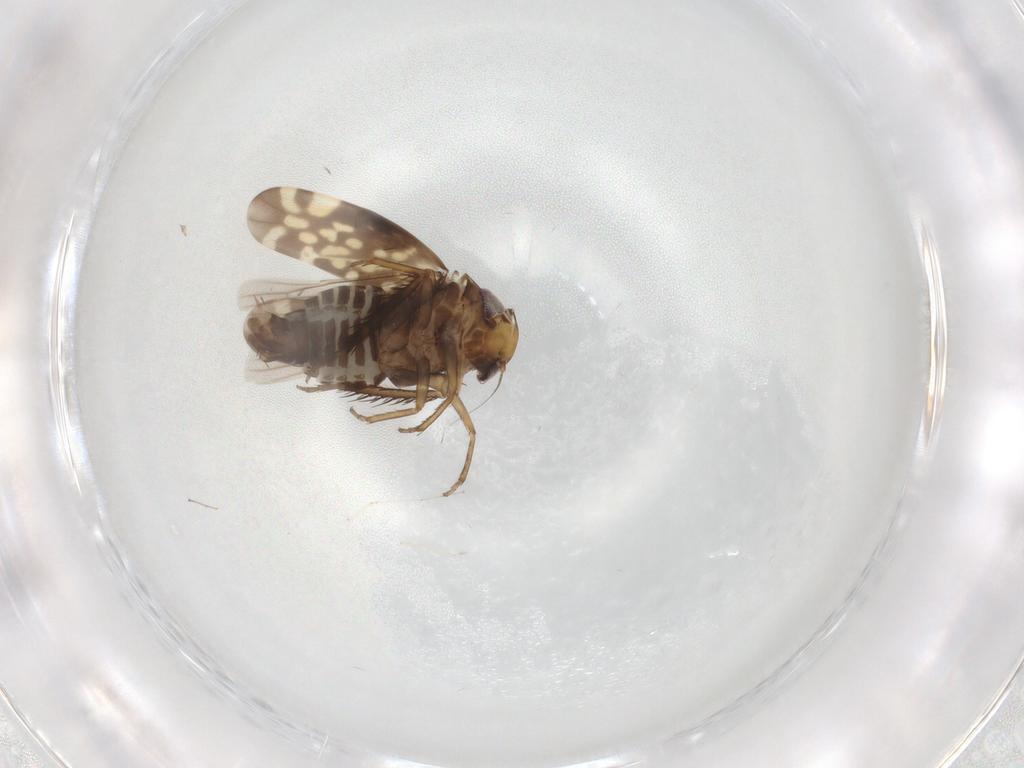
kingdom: Animalia
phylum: Arthropoda
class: Insecta
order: Hemiptera
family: Cicadellidae
